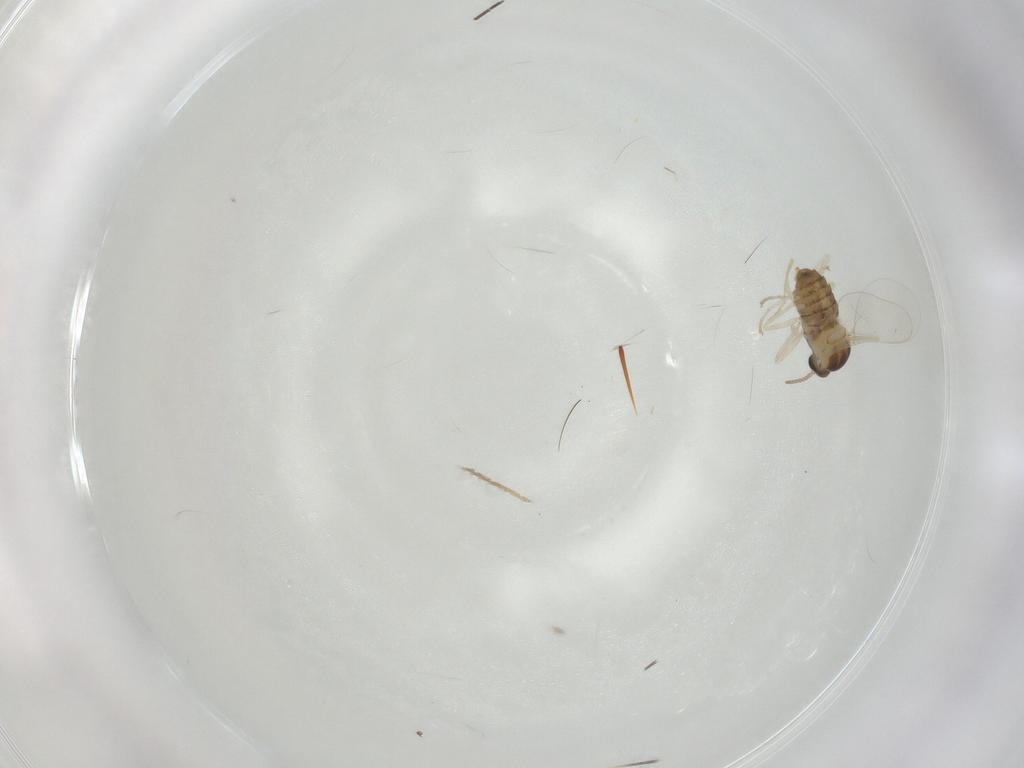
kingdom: Animalia
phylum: Arthropoda
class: Insecta
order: Diptera
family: Cecidomyiidae
